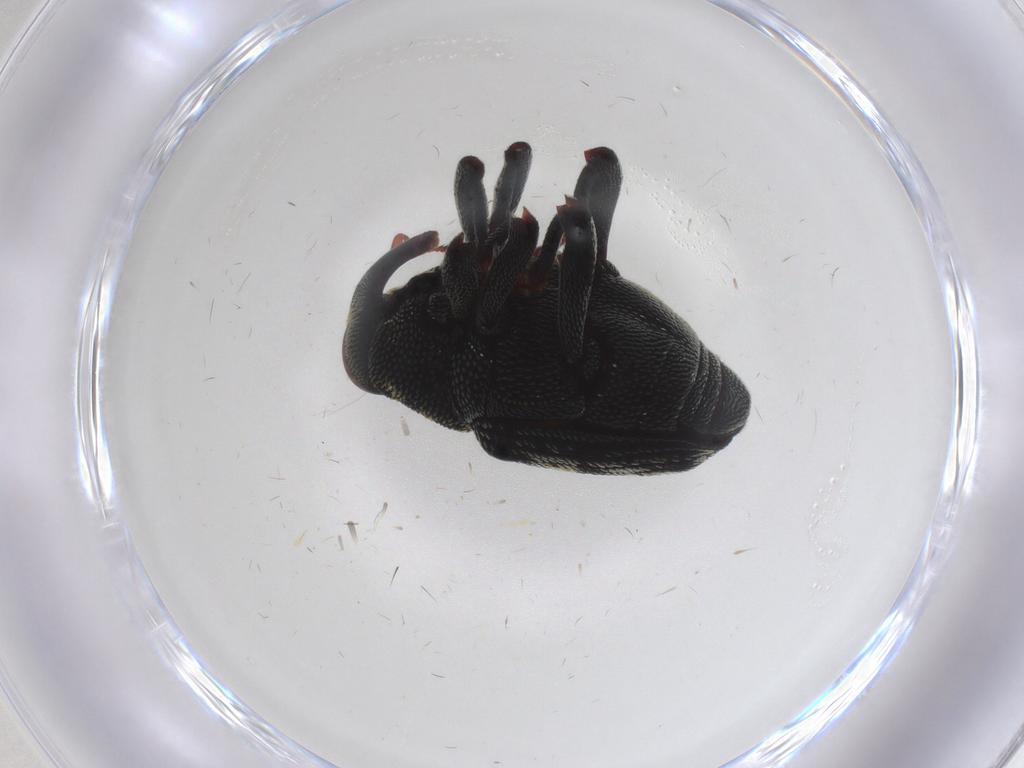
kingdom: Animalia
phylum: Arthropoda
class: Insecta
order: Coleoptera
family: Curculionidae
